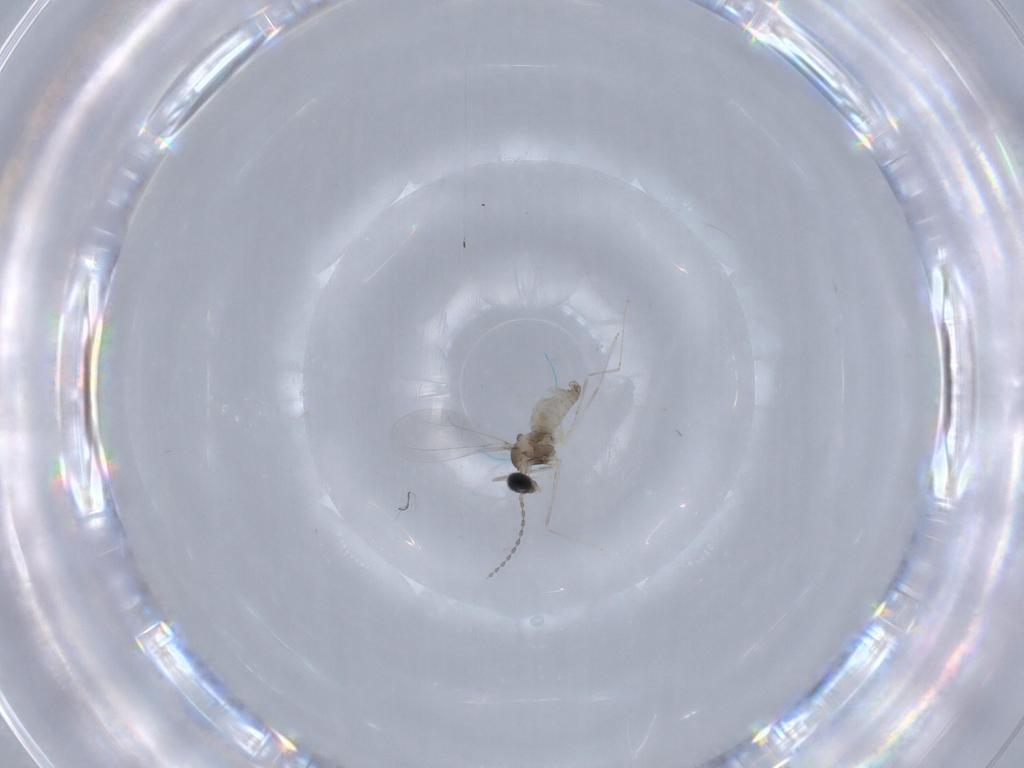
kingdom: Animalia
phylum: Arthropoda
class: Insecta
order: Diptera
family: Cecidomyiidae
